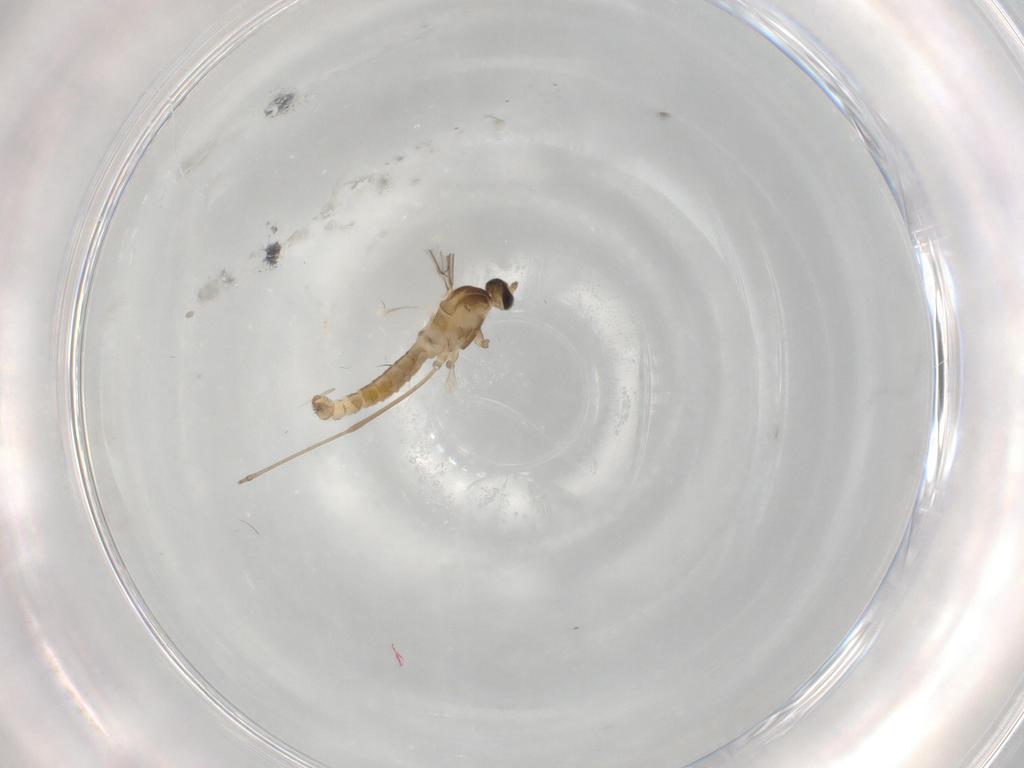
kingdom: Animalia
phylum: Arthropoda
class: Insecta
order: Diptera
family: Cecidomyiidae
